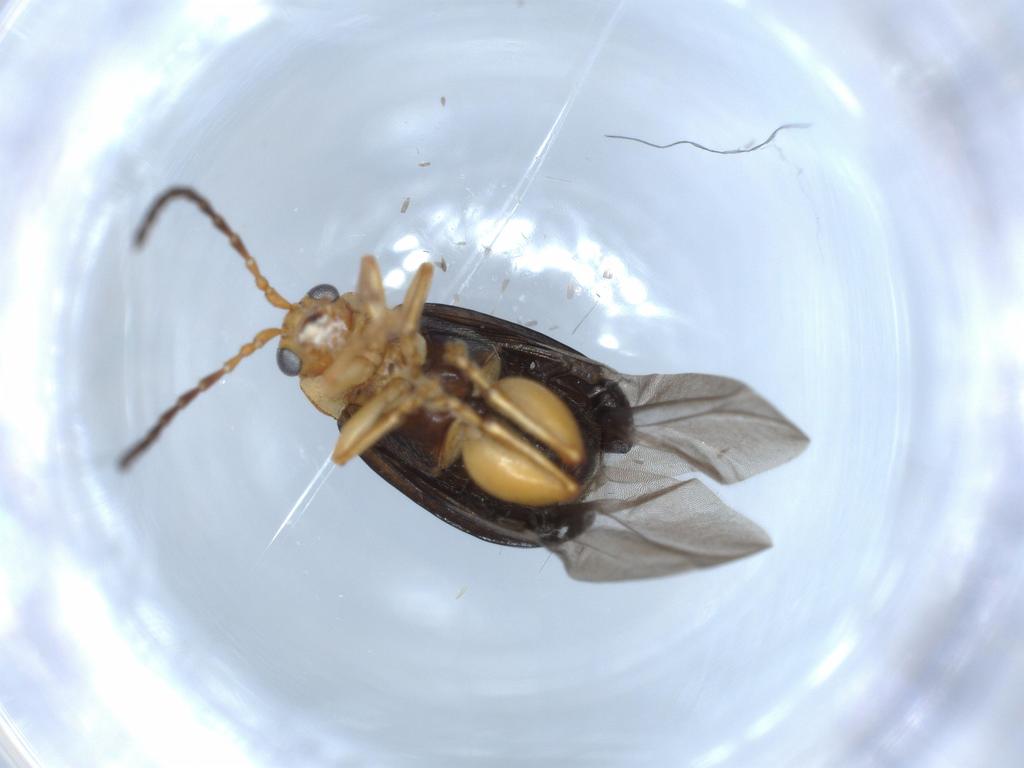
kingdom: Animalia
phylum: Arthropoda
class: Insecta
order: Coleoptera
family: Chrysomelidae
